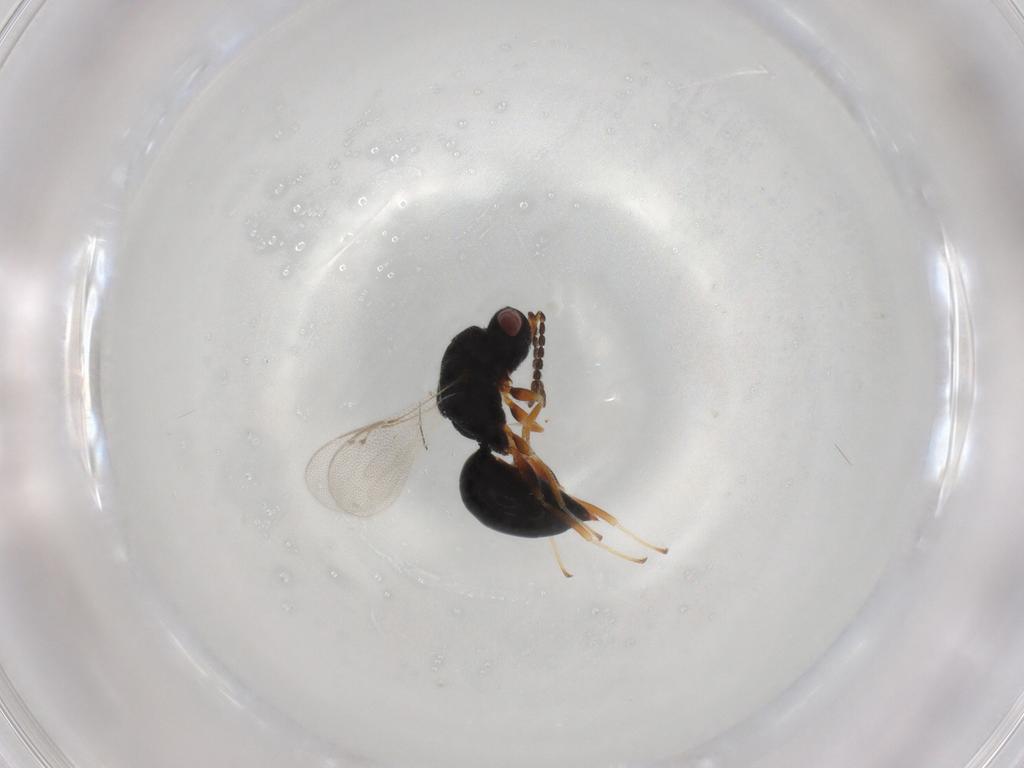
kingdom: Animalia
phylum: Arthropoda
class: Insecta
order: Hymenoptera
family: Eurytomidae
